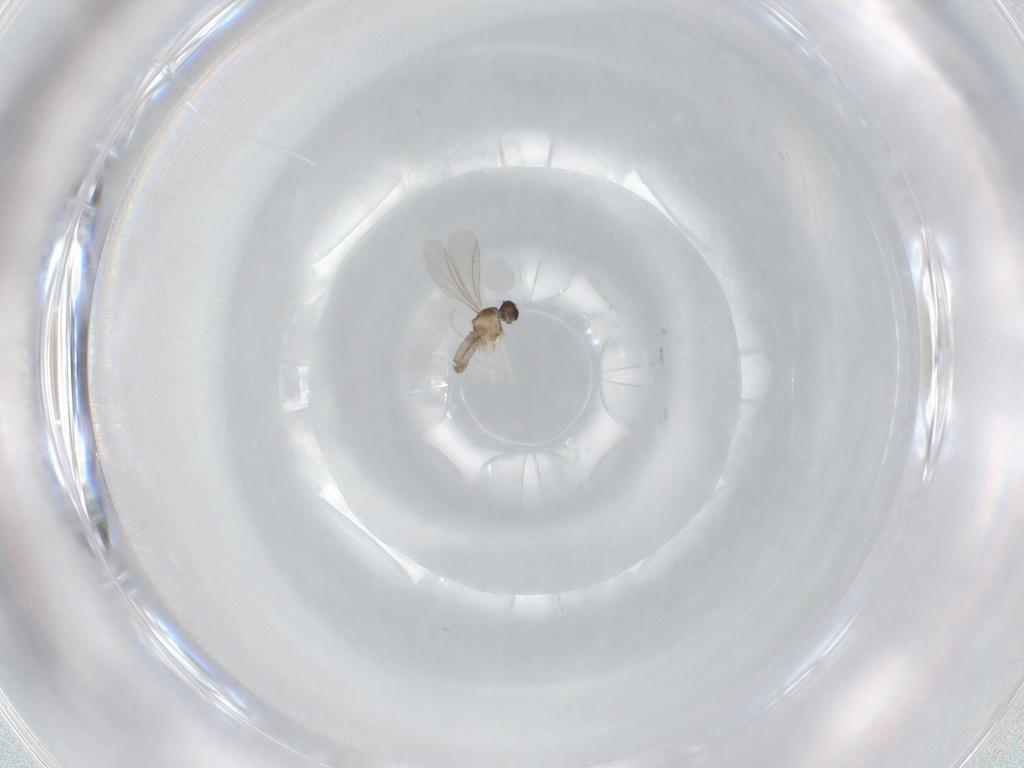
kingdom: Animalia
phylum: Arthropoda
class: Insecta
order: Diptera
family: Cecidomyiidae
